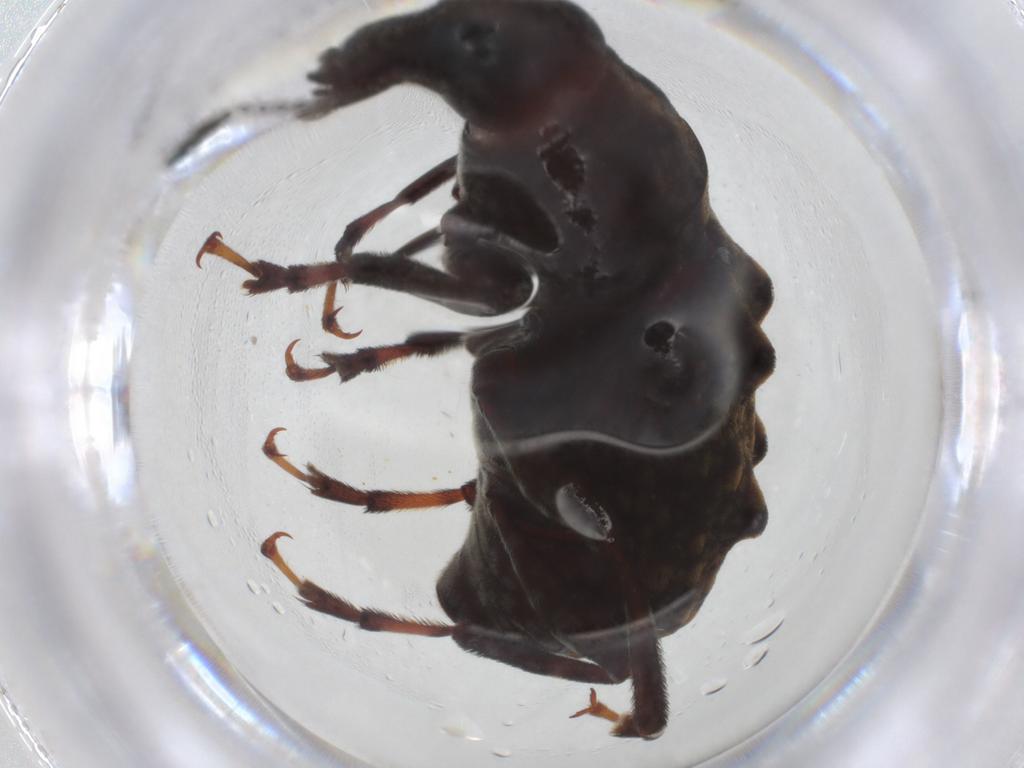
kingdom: Animalia
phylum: Arthropoda
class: Insecta
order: Coleoptera
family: Anthribidae
